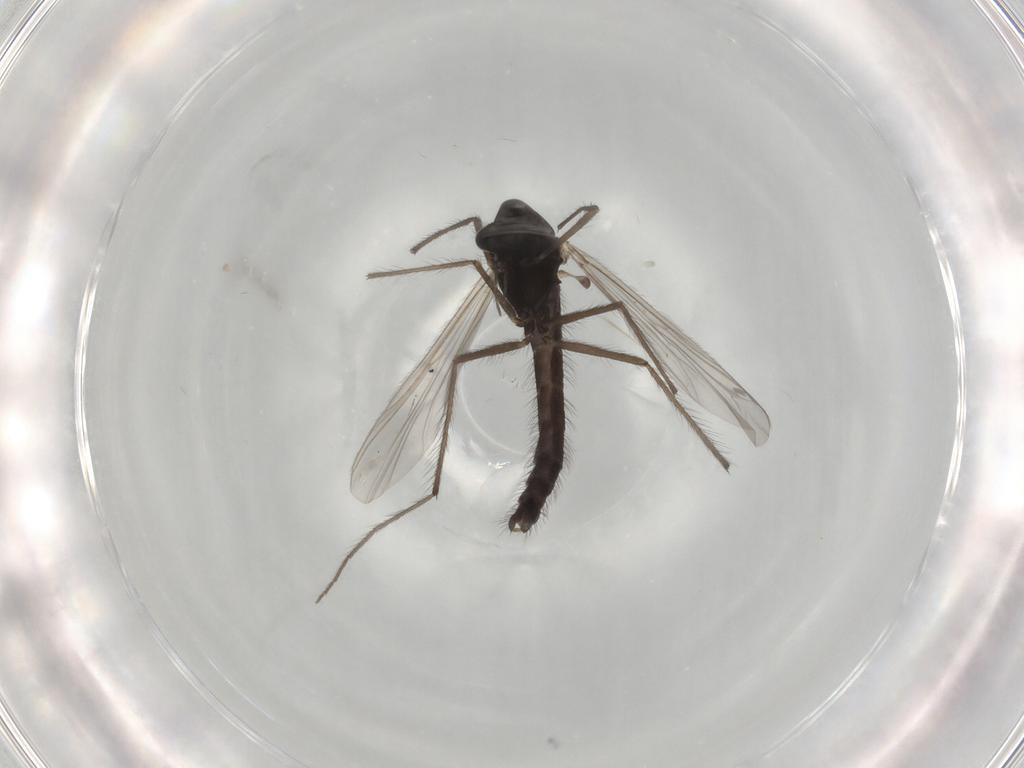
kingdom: Animalia
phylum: Arthropoda
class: Insecta
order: Diptera
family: Chironomidae
